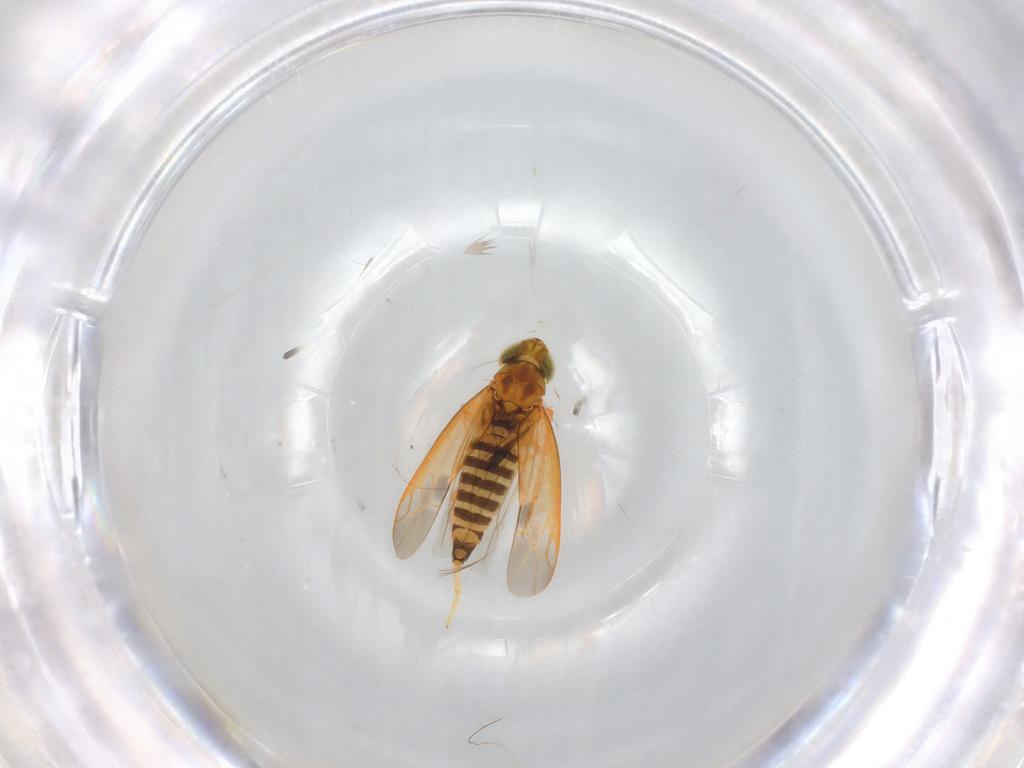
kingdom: Animalia
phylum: Arthropoda
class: Insecta
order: Hemiptera
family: Cicadellidae
